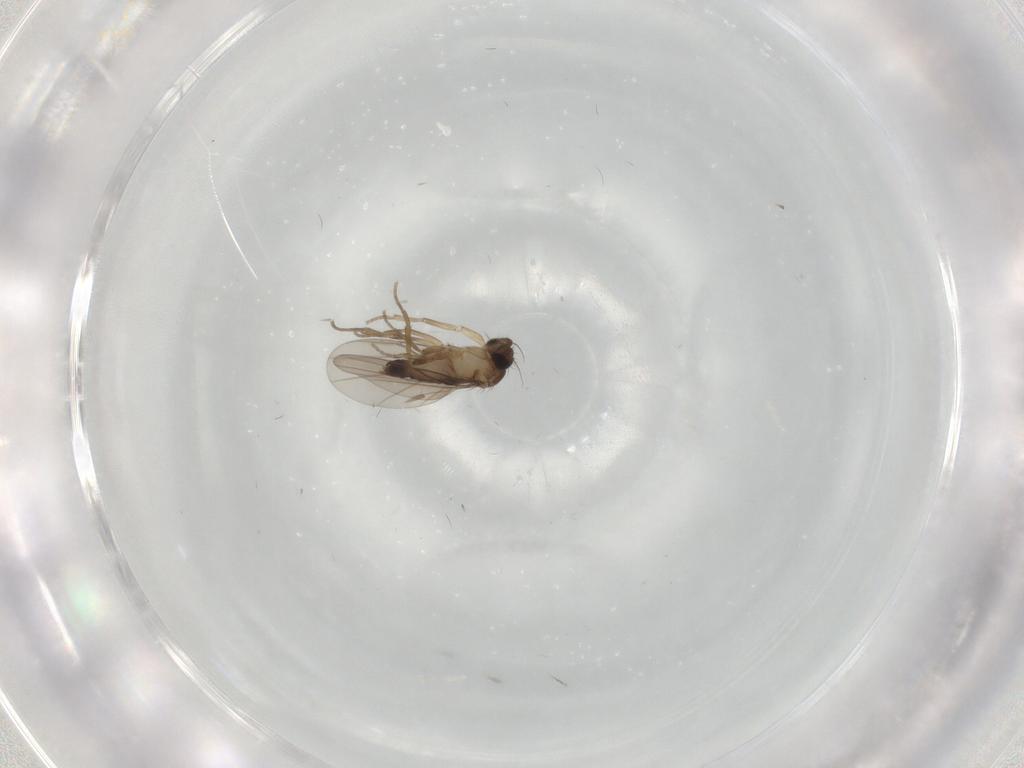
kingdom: Animalia
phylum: Arthropoda
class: Insecta
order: Diptera
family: Phoridae
